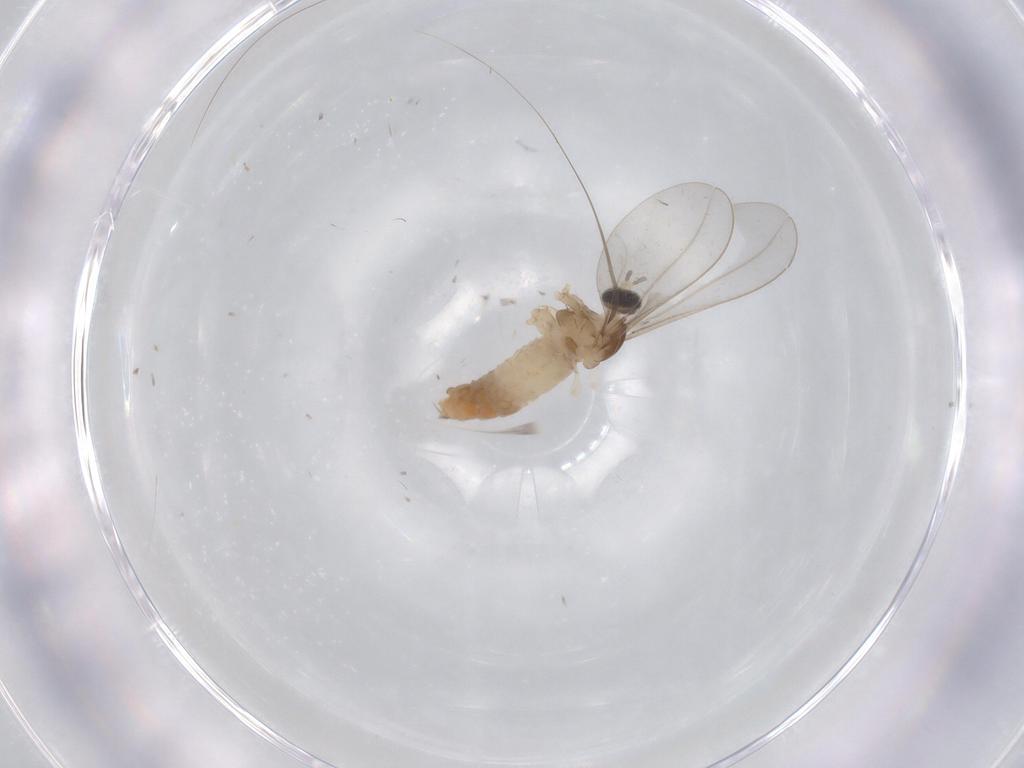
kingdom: Animalia
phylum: Arthropoda
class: Insecta
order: Diptera
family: Cecidomyiidae
